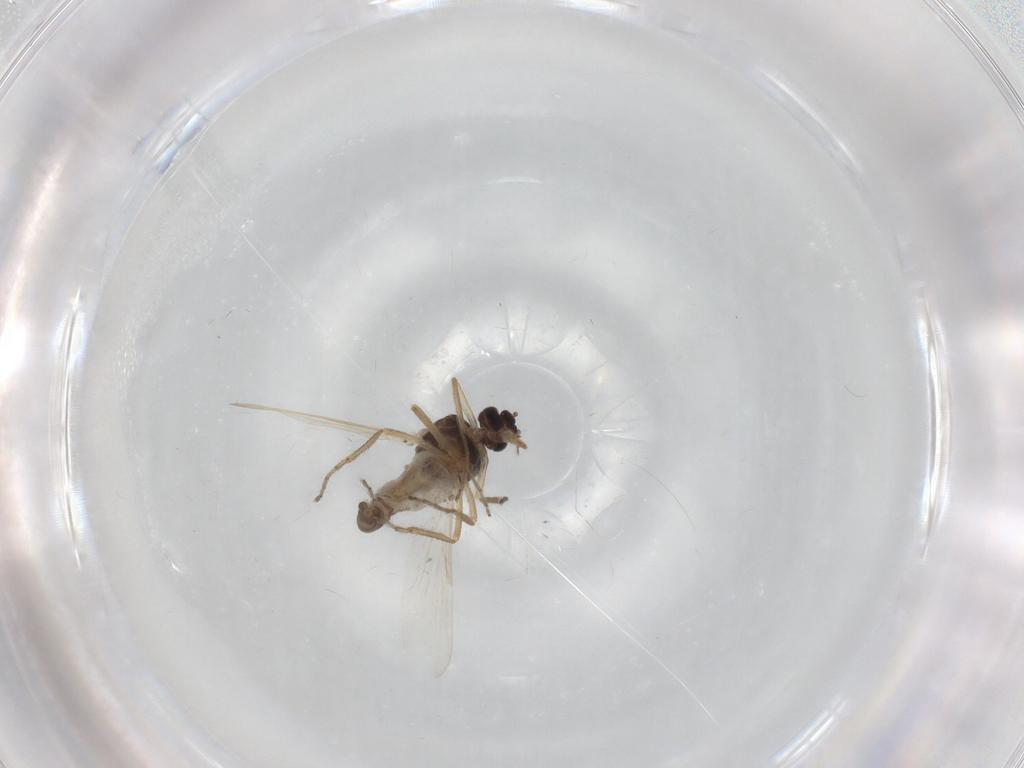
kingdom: Animalia
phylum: Arthropoda
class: Insecta
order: Diptera
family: Ceratopogonidae
